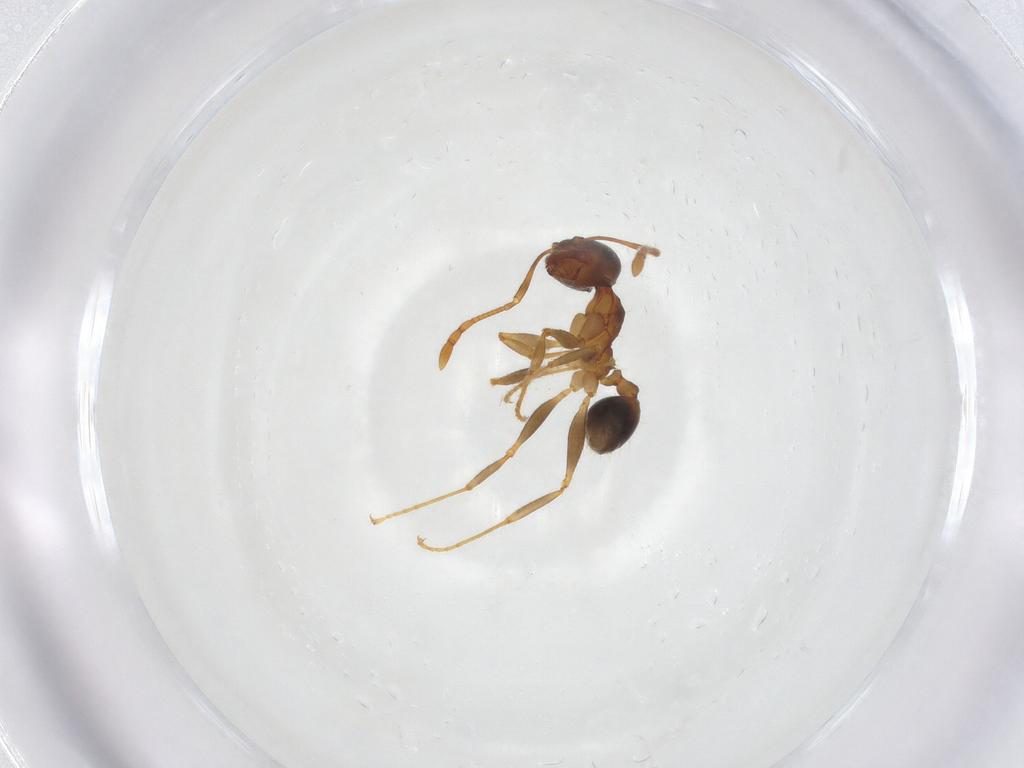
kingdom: Animalia
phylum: Arthropoda
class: Insecta
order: Hymenoptera
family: Formicidae
